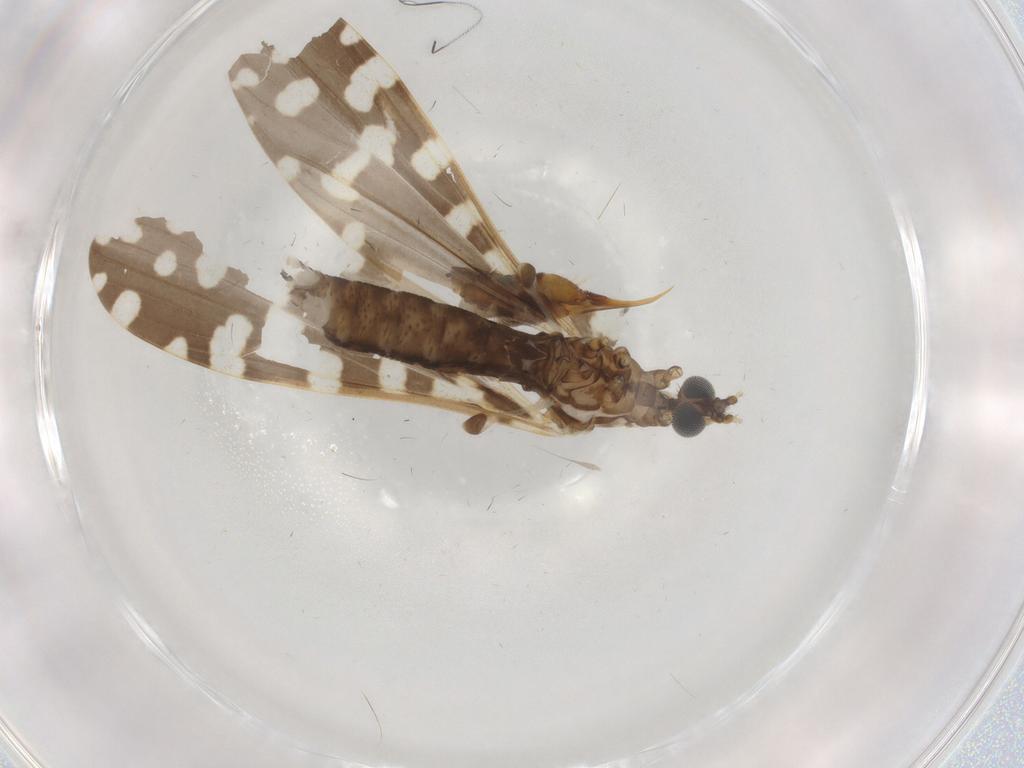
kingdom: Animalia
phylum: Arthropoda
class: Insecta
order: Diptera
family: Limoniidae
